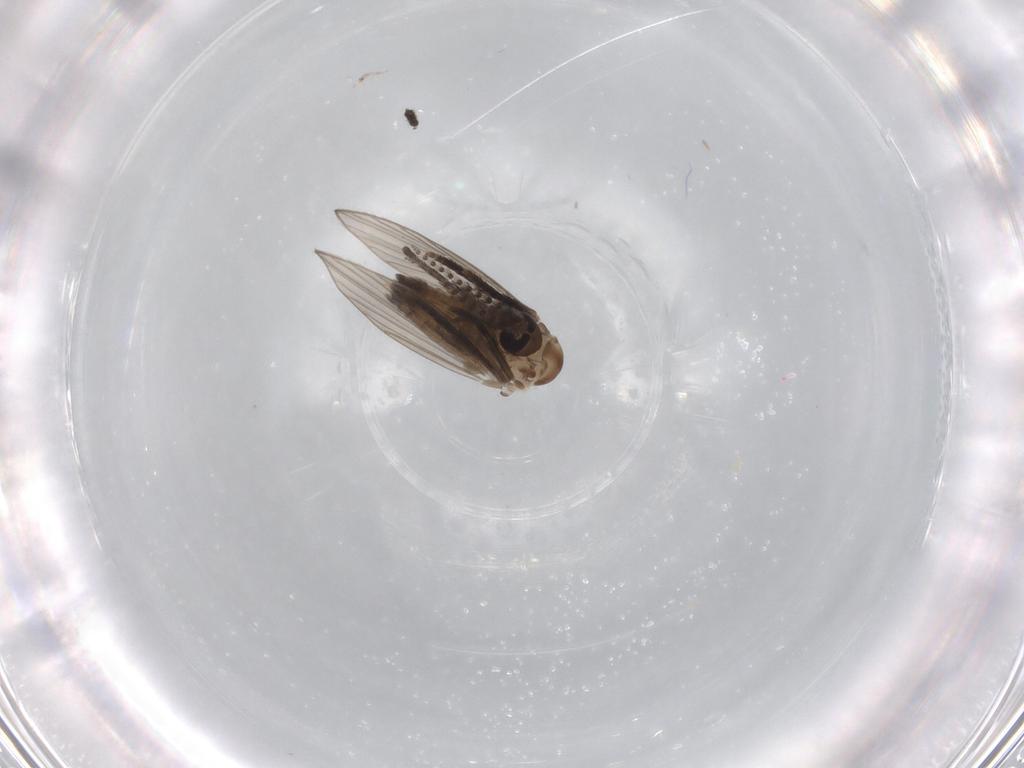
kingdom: Animalia
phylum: Arthropoda
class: Insecta
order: Diptera
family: Psychodidae
